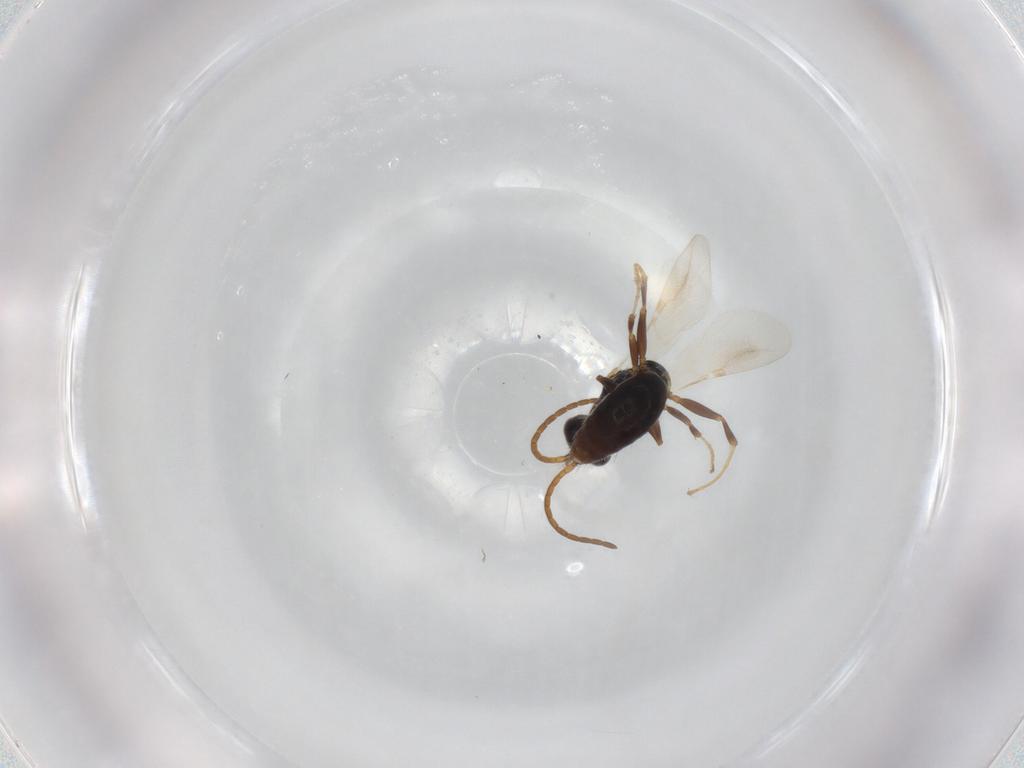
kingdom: Animalia
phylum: Arthropoda
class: Insecta
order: Hymenoptera
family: Bethylidae
